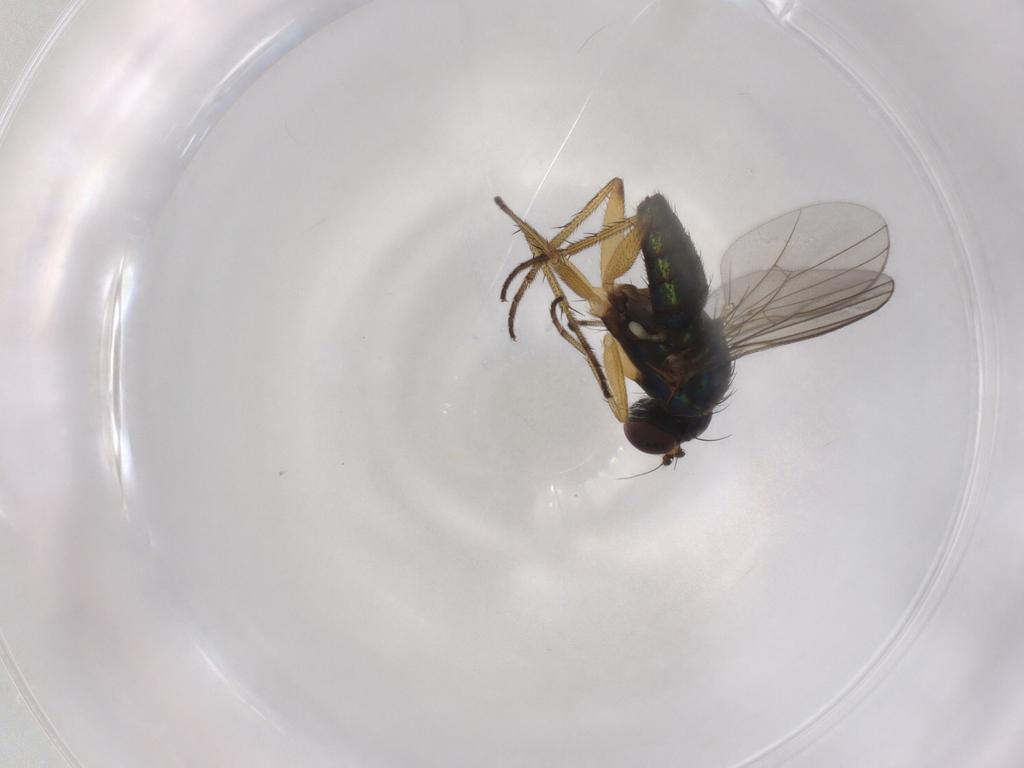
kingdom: Animalia
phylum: Arthropoda
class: Insecta
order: Diptera
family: Dolichopodidae
